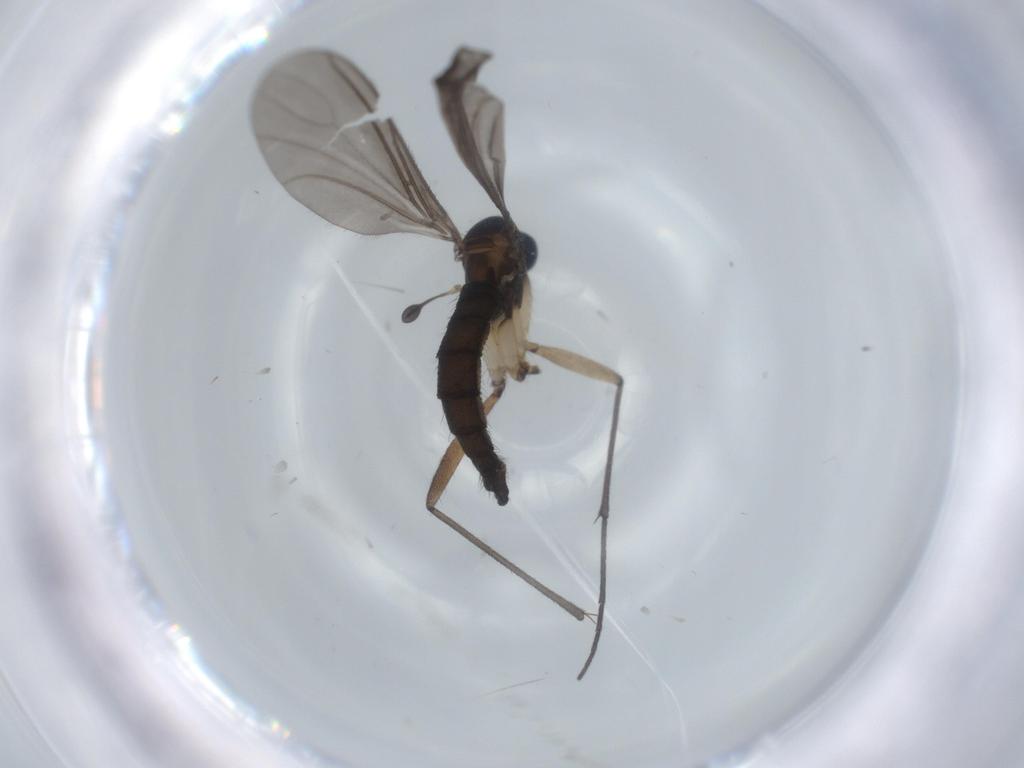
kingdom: Animalia
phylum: Arthropoda
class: Insecta
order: Diptera
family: Sciaridae
